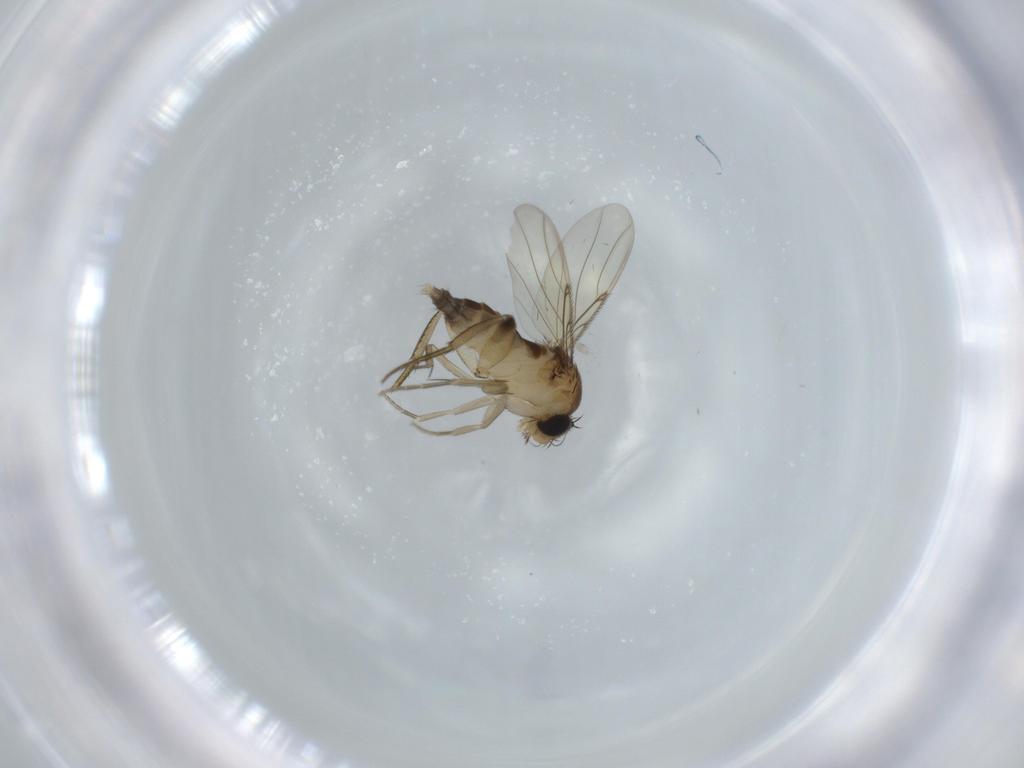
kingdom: Animalia
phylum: Arthropoda
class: Insecta
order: Diptera
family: Phoridae
